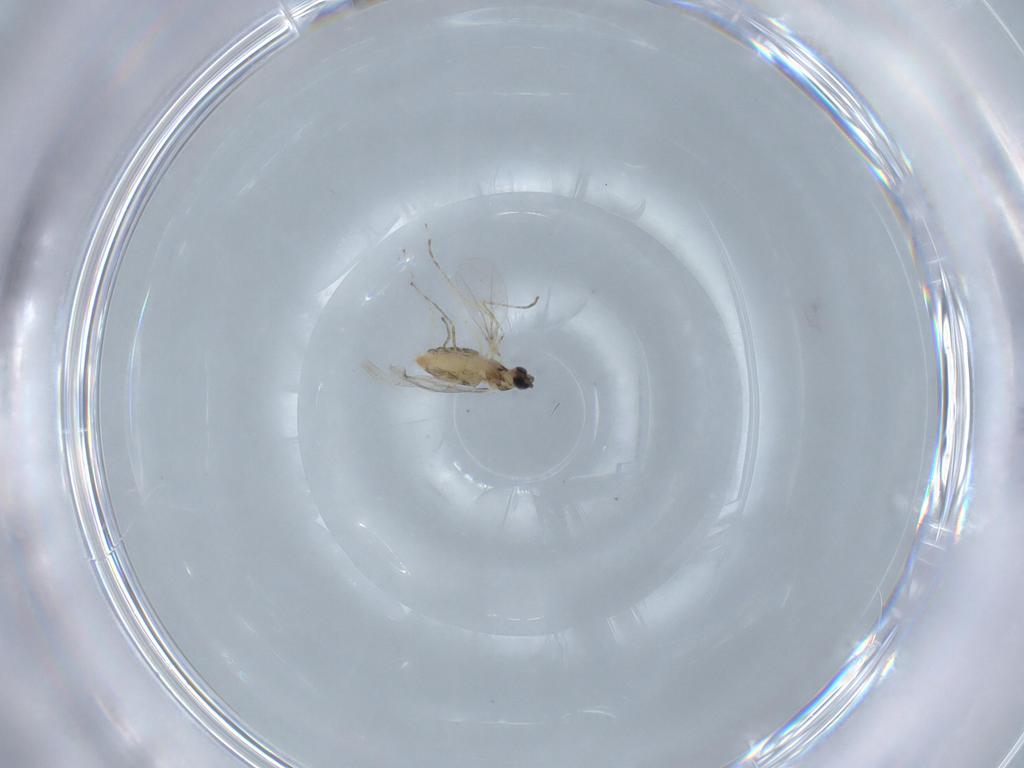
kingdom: Animalia
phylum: Arthropoda
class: Insecta
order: Diptera
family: Cecidomyiidae
